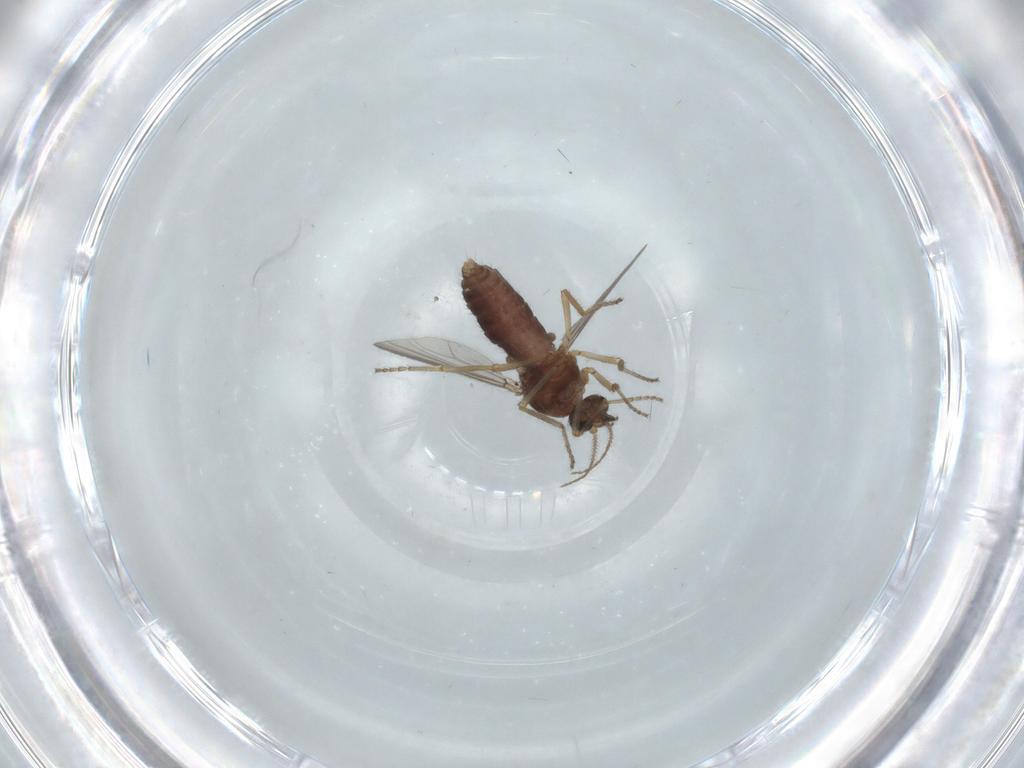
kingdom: Animalia
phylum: Arthropoda
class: Insecta
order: Diptera
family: Ceratopogonidae
